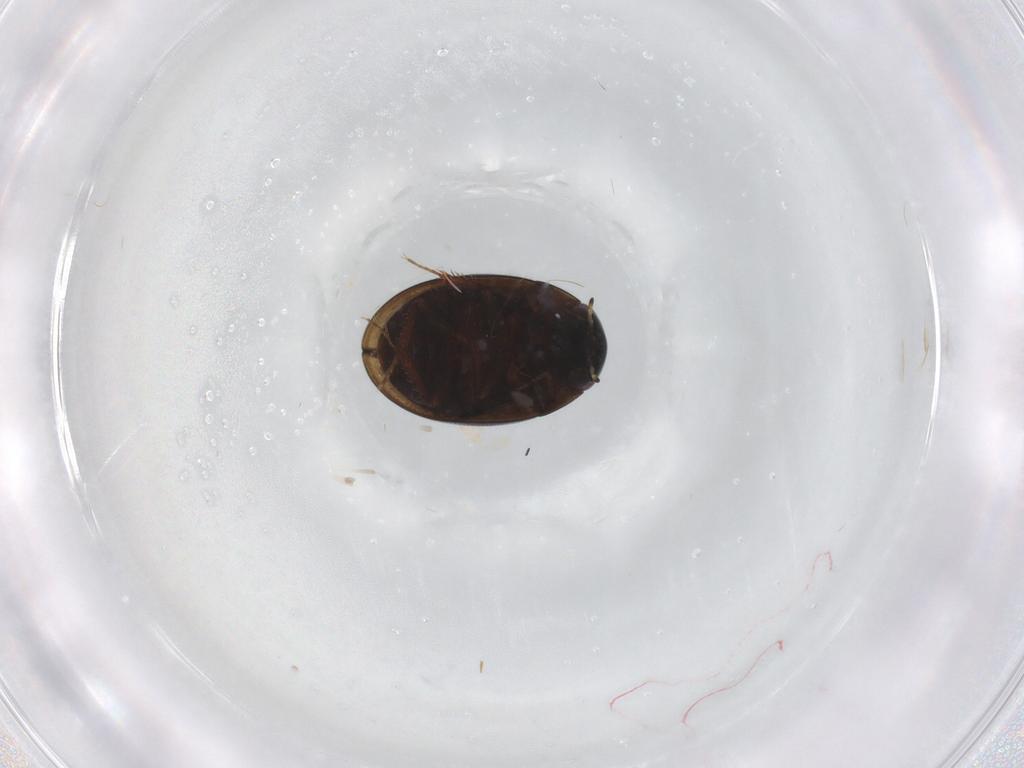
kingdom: Animalia
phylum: Arthropoda
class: Insecta
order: Coleoptera
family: Hydrophilidae
